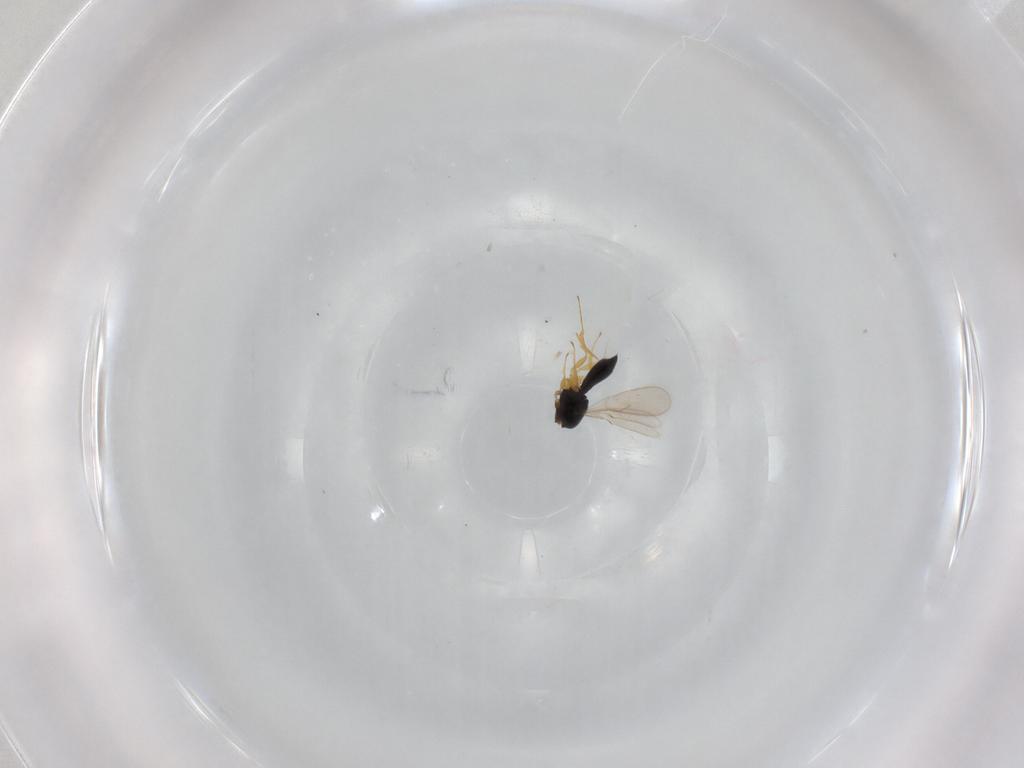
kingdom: Animalia
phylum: Arthropoda
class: Insecta
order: Hymenoptera
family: Scelionidae
